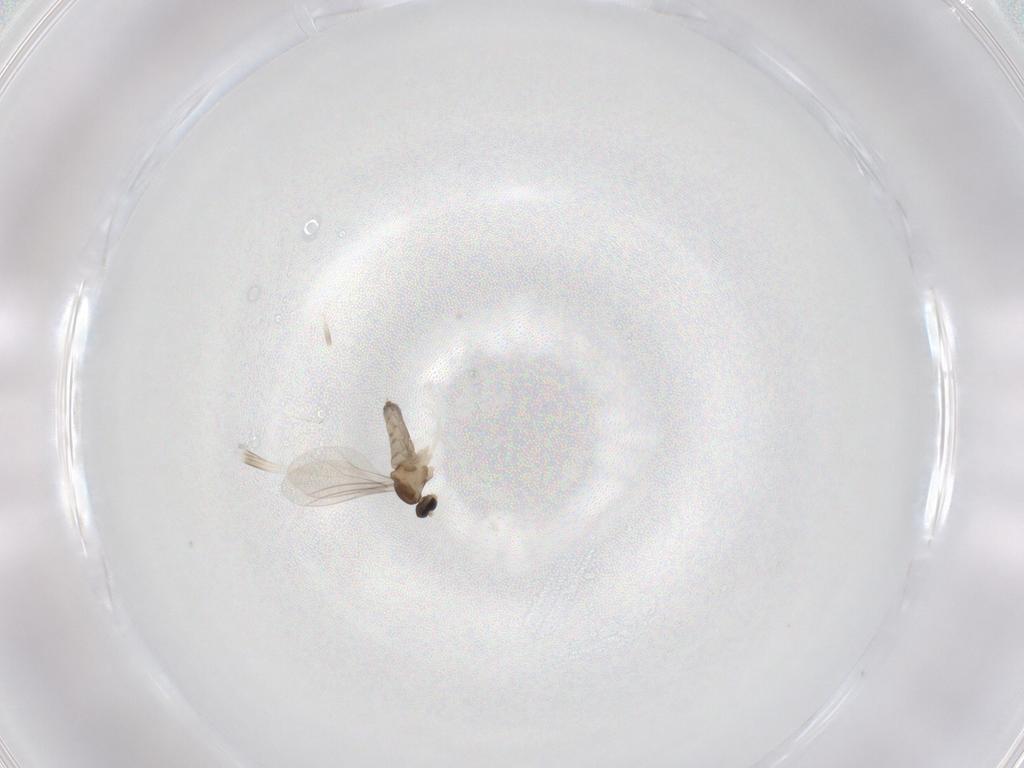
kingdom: Animalia
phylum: Arthropoda
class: Insecta
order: Diptera
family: Cecidomyiidae
